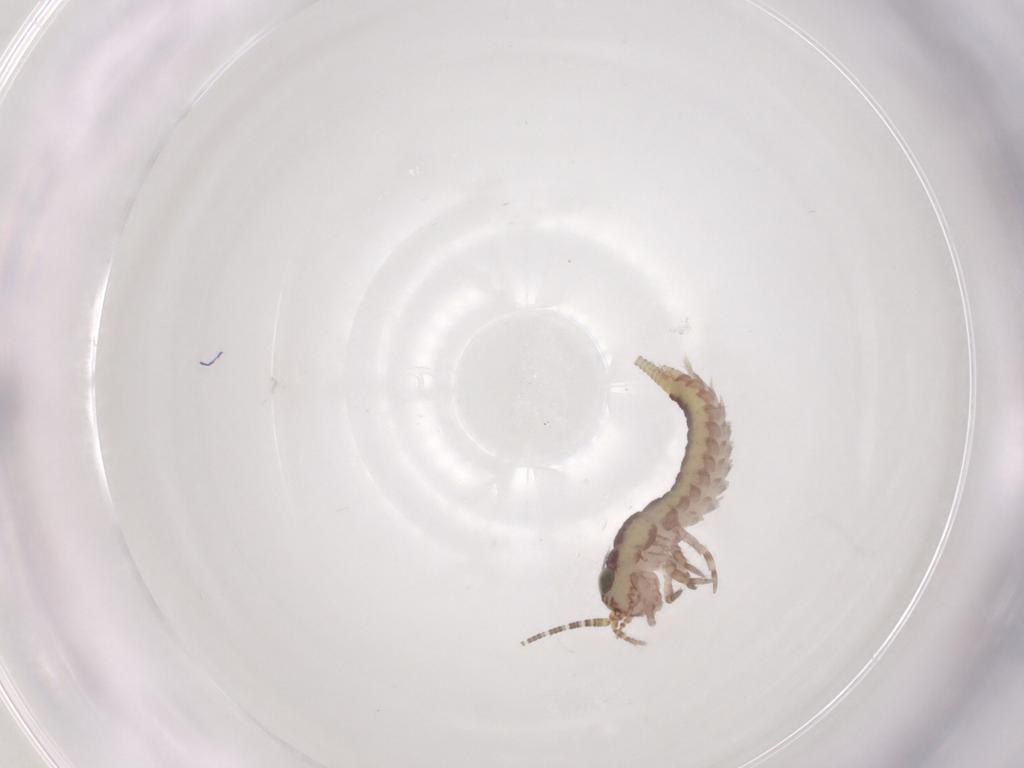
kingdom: Animalia
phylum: Arthropoda
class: Insecta
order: Archaeognatha
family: Meinertellidae
